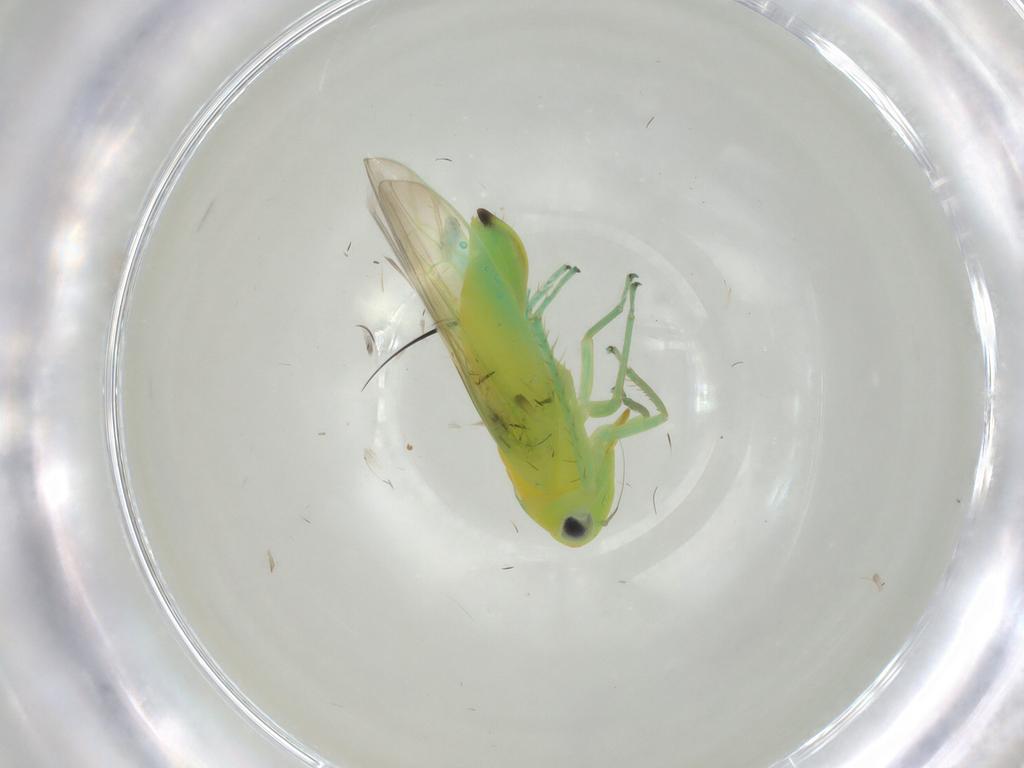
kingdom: Animalia
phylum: Arthropoda
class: Insecta
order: Hemiptera
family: Cicadellidae
